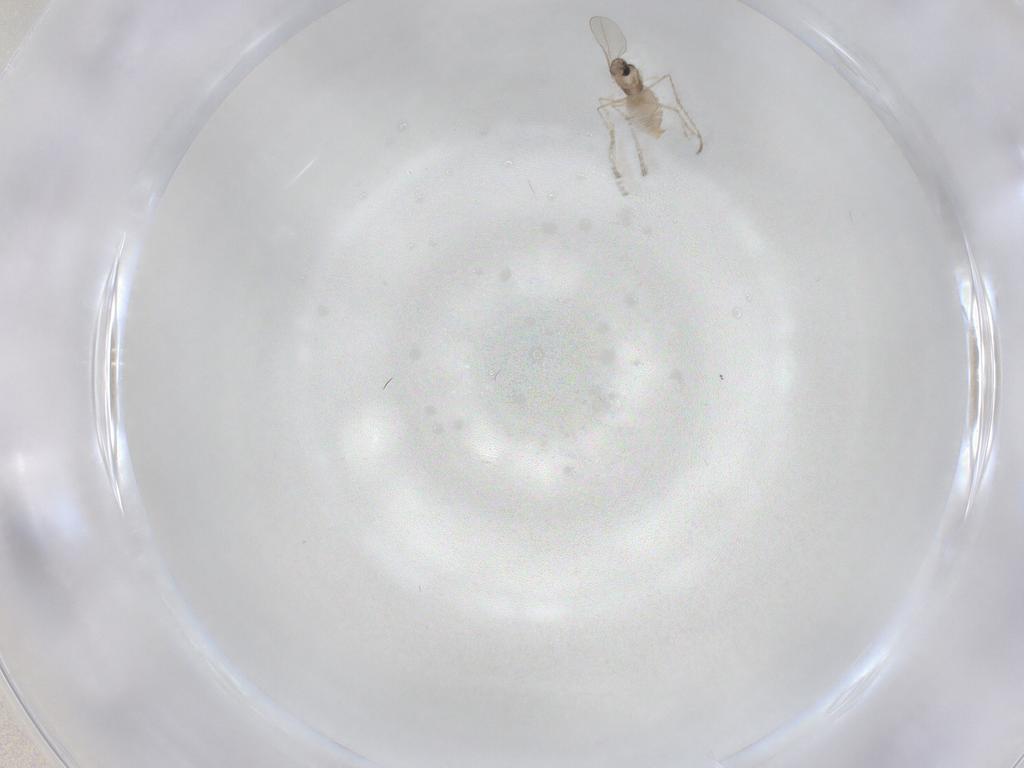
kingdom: Animalia
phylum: Arthropoda
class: Insecta
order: Diptera
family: Cecidomyiidae
